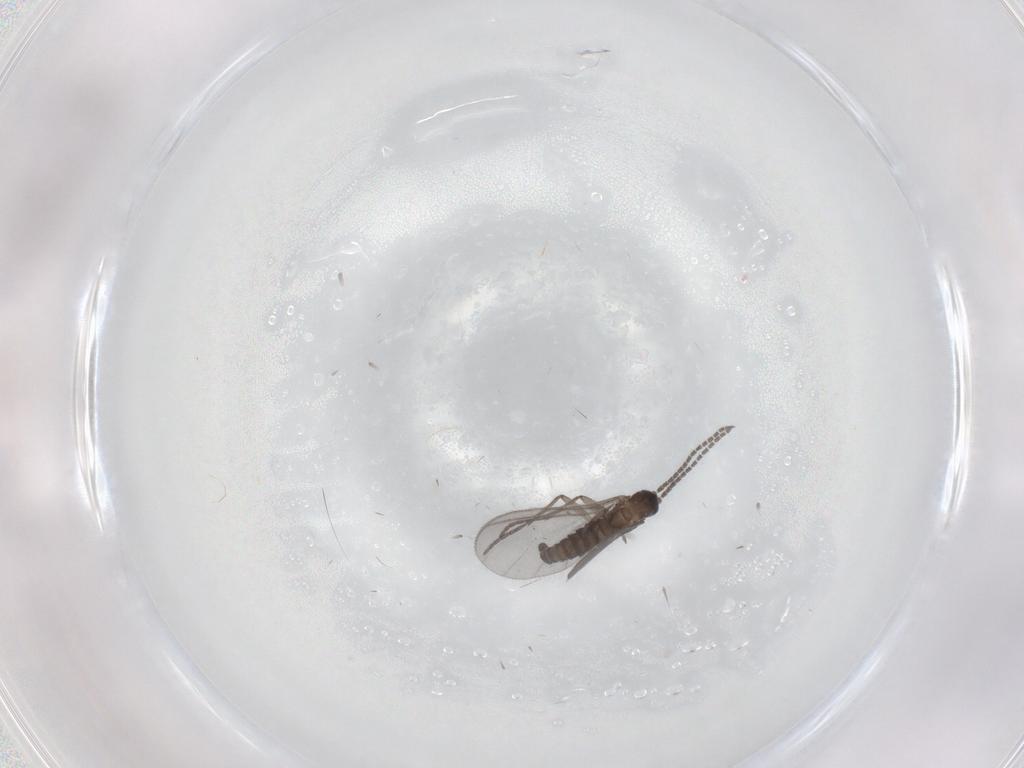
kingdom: Animalia
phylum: Arthropoda
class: Insecta
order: Diptera
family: Sciaridae
